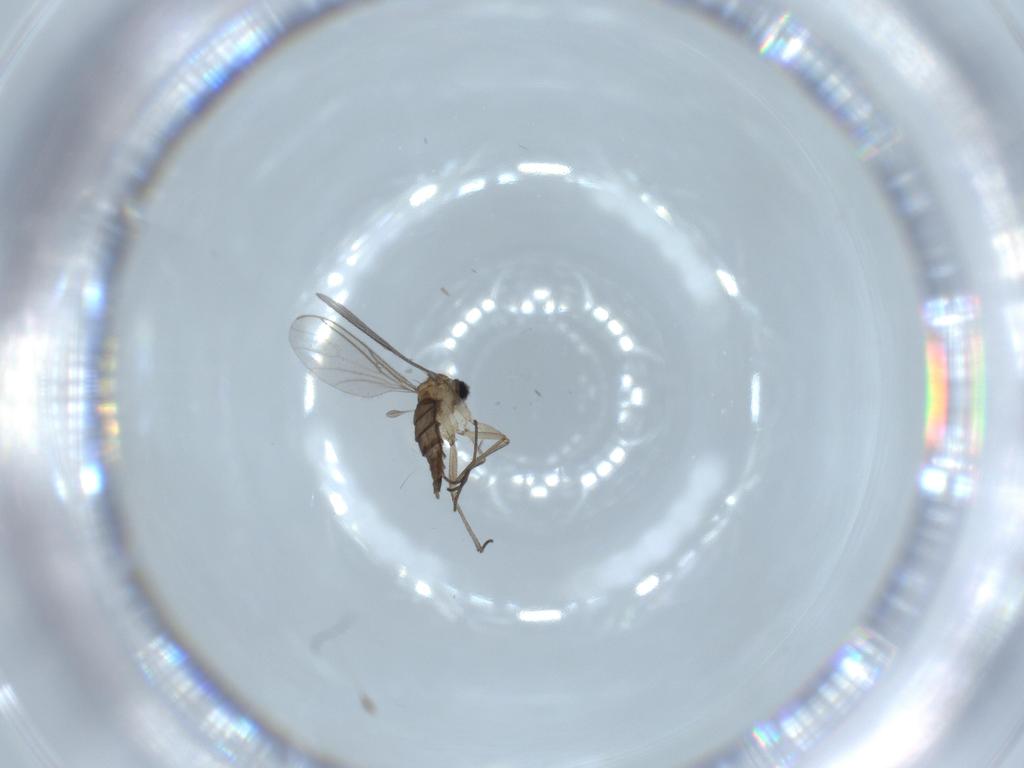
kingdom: Animalia
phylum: Arthropoda
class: Insecta
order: Diptera
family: Sciaridae
